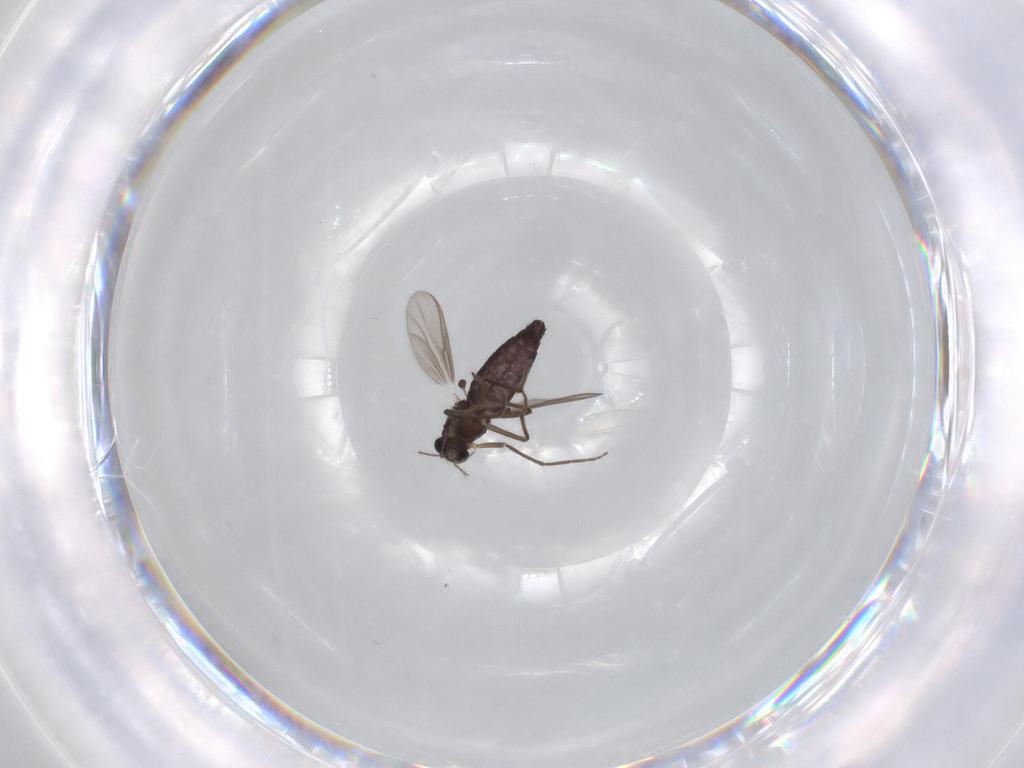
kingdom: Animalia
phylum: Arthropoda
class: Insecta
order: Diptera
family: Chironomidae
